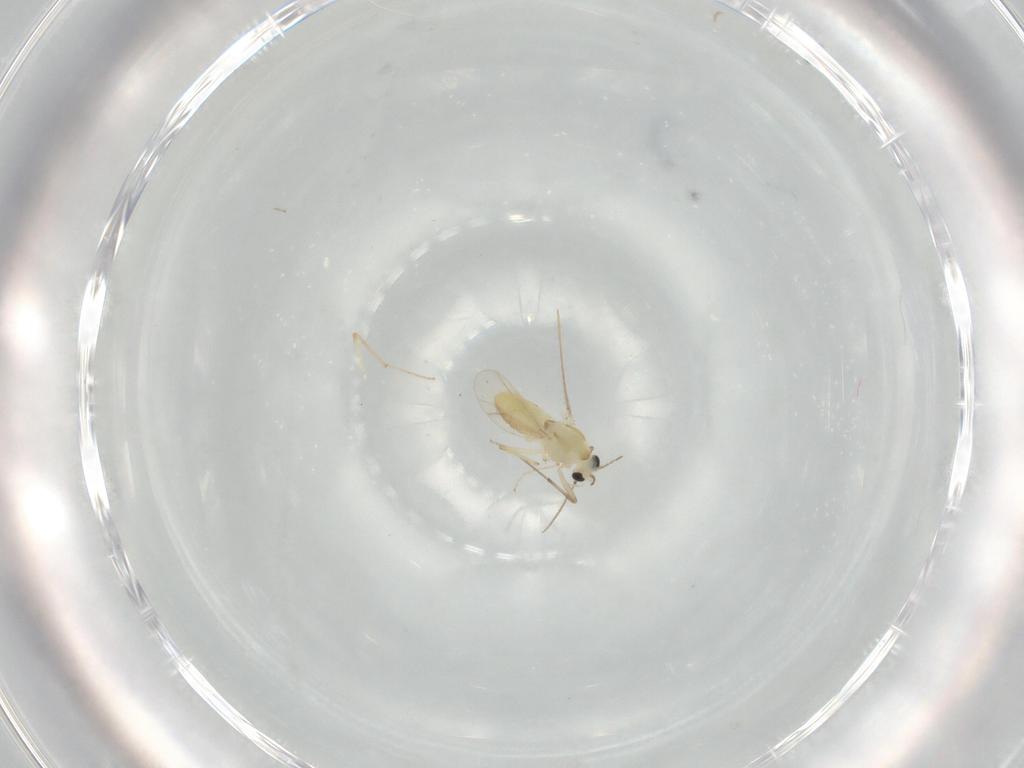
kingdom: Animalia
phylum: Arthropoda
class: Insecta
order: Diptera
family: Chironomidae
